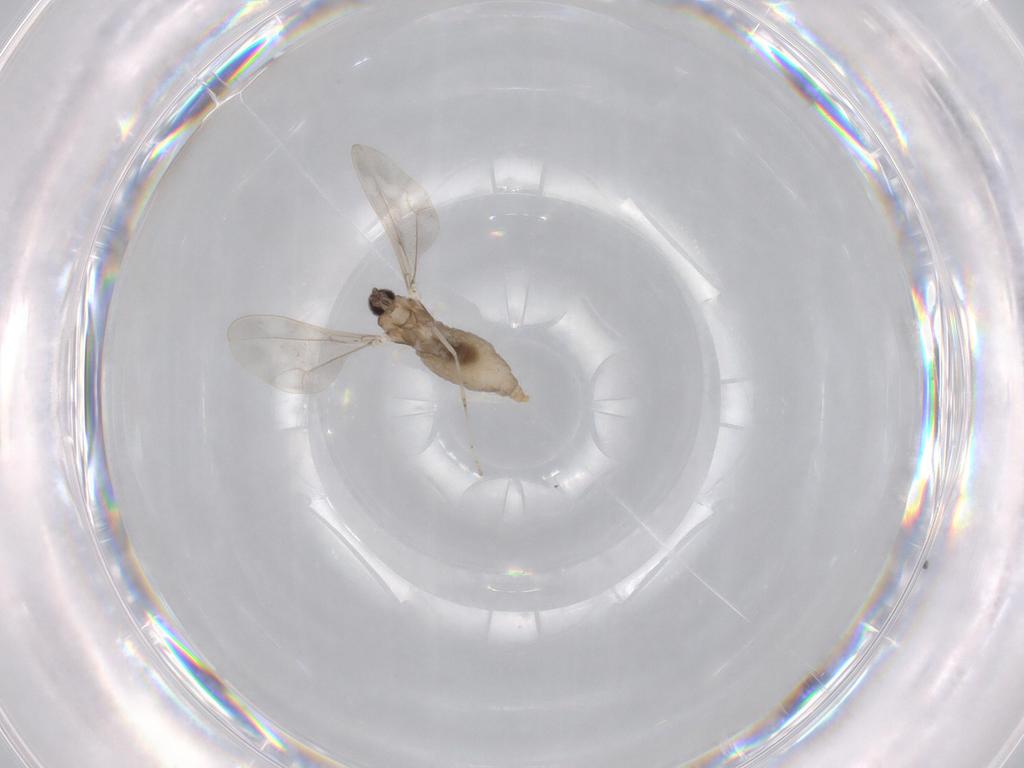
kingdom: Animalia
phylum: Arthropoda
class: Insecta
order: Diptera
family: Cecidomyiidae
